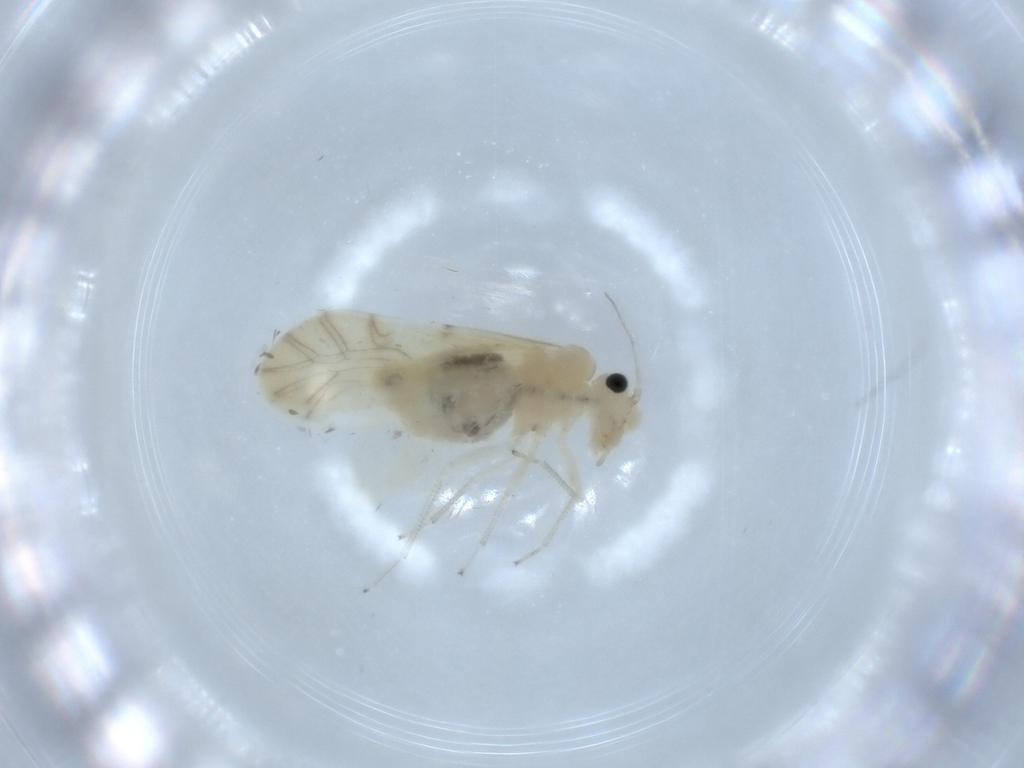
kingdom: Animalia
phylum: Arthropoda
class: Insecta
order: Psocodea
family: Caeciliusidae
